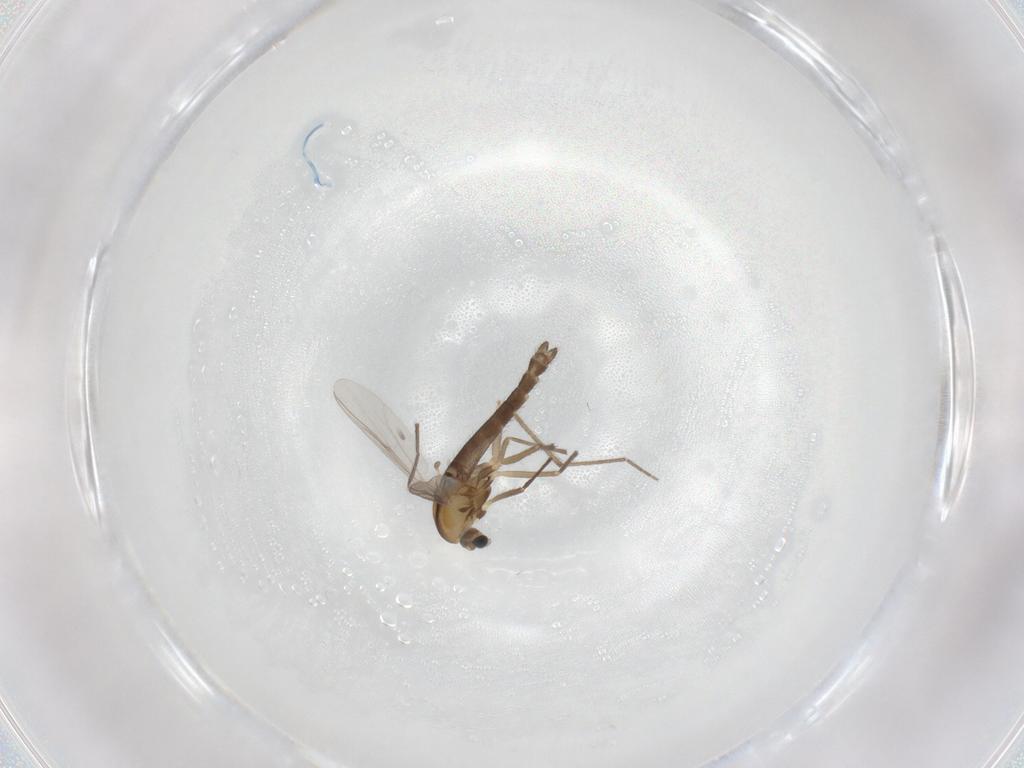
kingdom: Animalia
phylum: Arthropoda
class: Insecta
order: Diptera
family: Chironomidae
